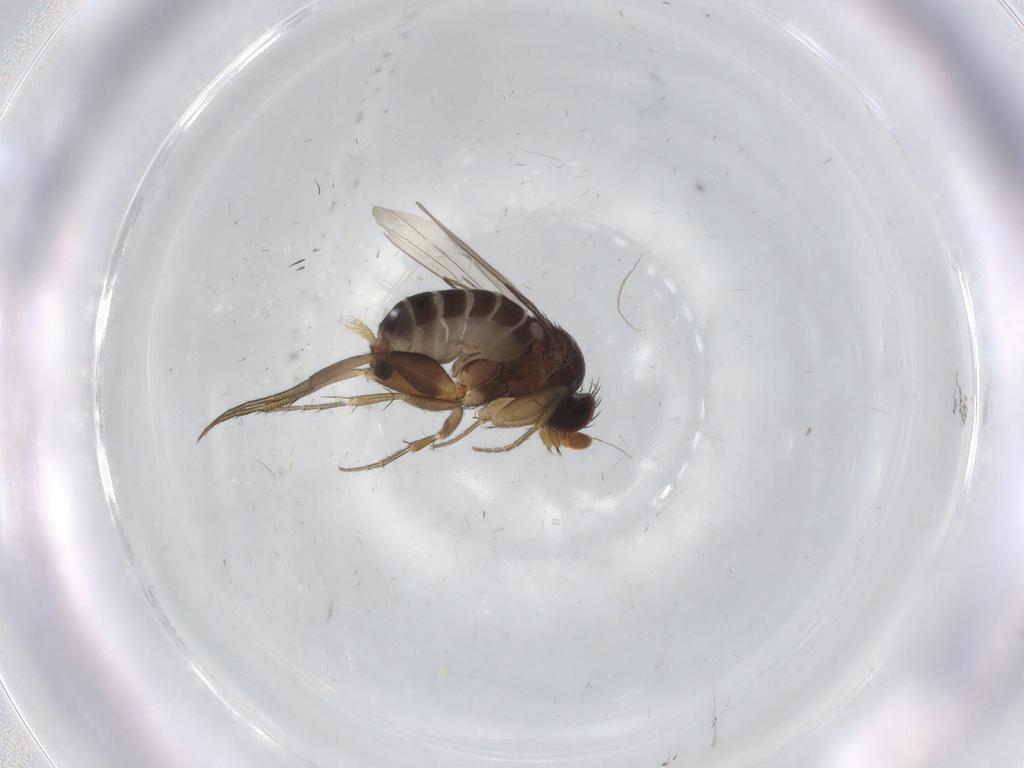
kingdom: Animalia
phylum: Arthropoda
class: Insecta
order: Diptera
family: Phoridae
